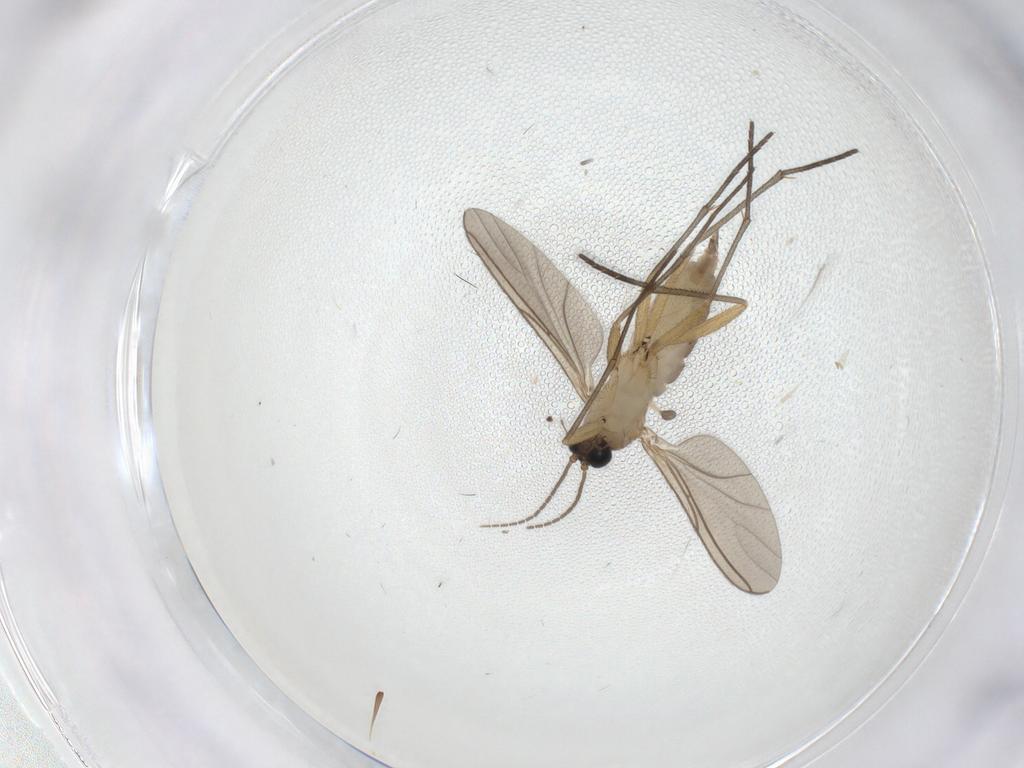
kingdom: Animalia
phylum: Arthropoda
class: Insecta
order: Diptera
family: Sciaridae
